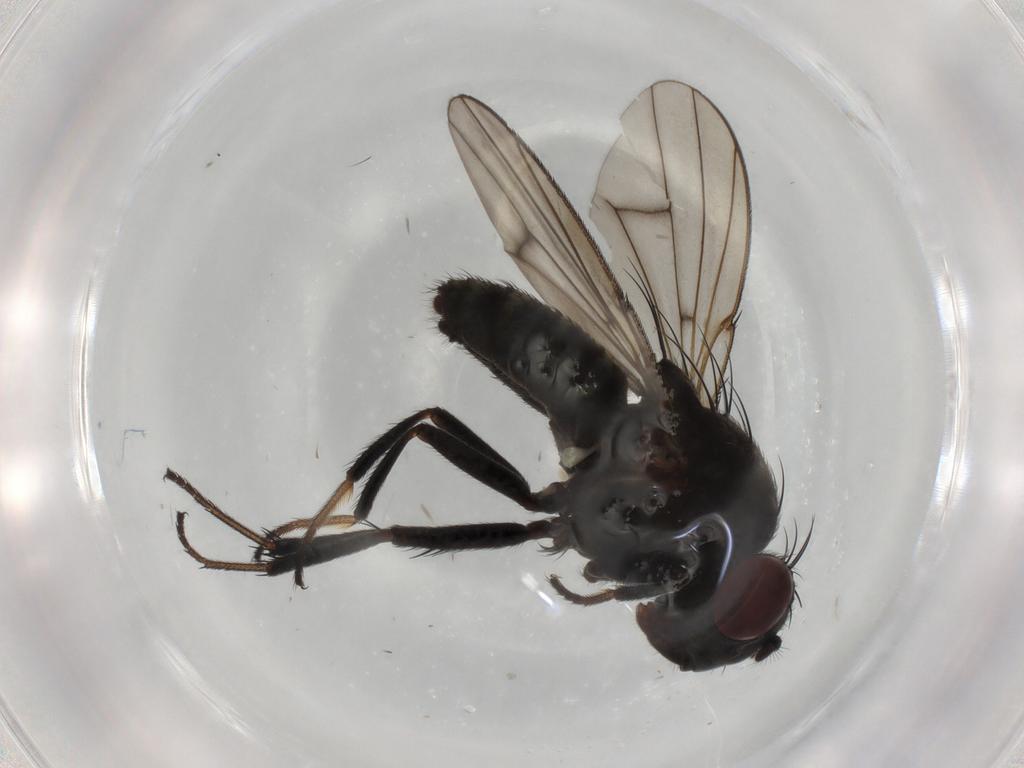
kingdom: Animalia
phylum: Arthropoda
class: Insecta
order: Diptera
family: Ephydridae
